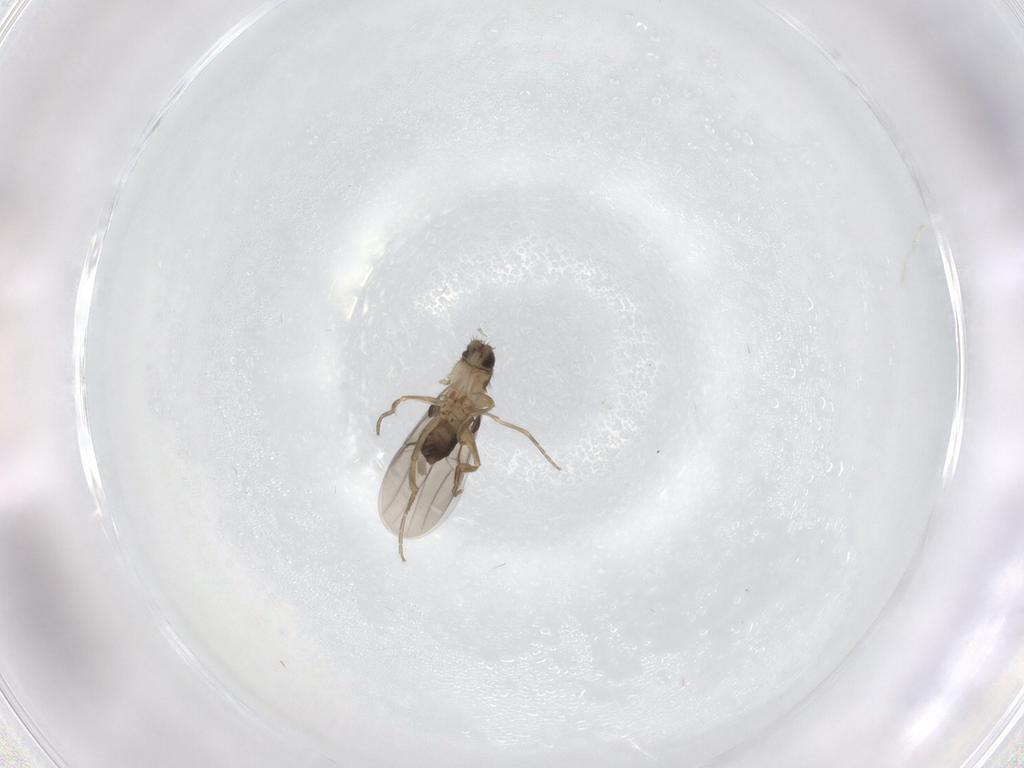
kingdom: Animalia
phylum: Arthropoda
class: Insecta
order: Diptera
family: Phoridae
